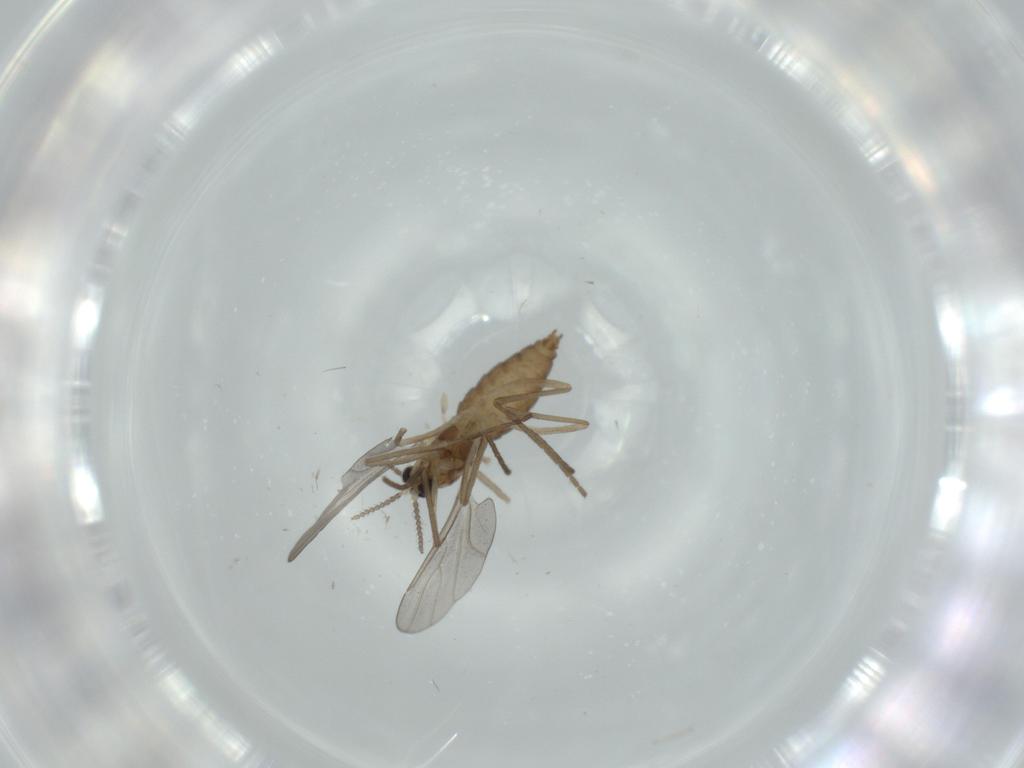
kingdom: Animalia
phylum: Arthropoda
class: Insecta
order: Diptera
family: Cecidomyiidae
